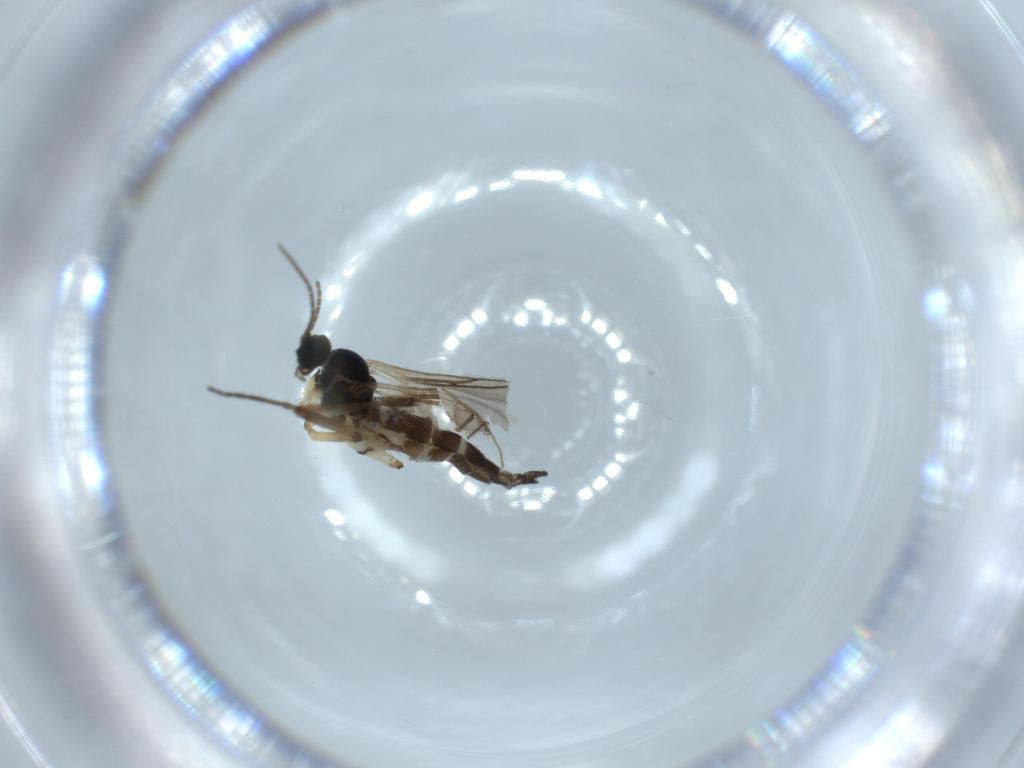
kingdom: Animalia
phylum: Arthropoda
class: Insecta
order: Diptera
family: Sciaridae
